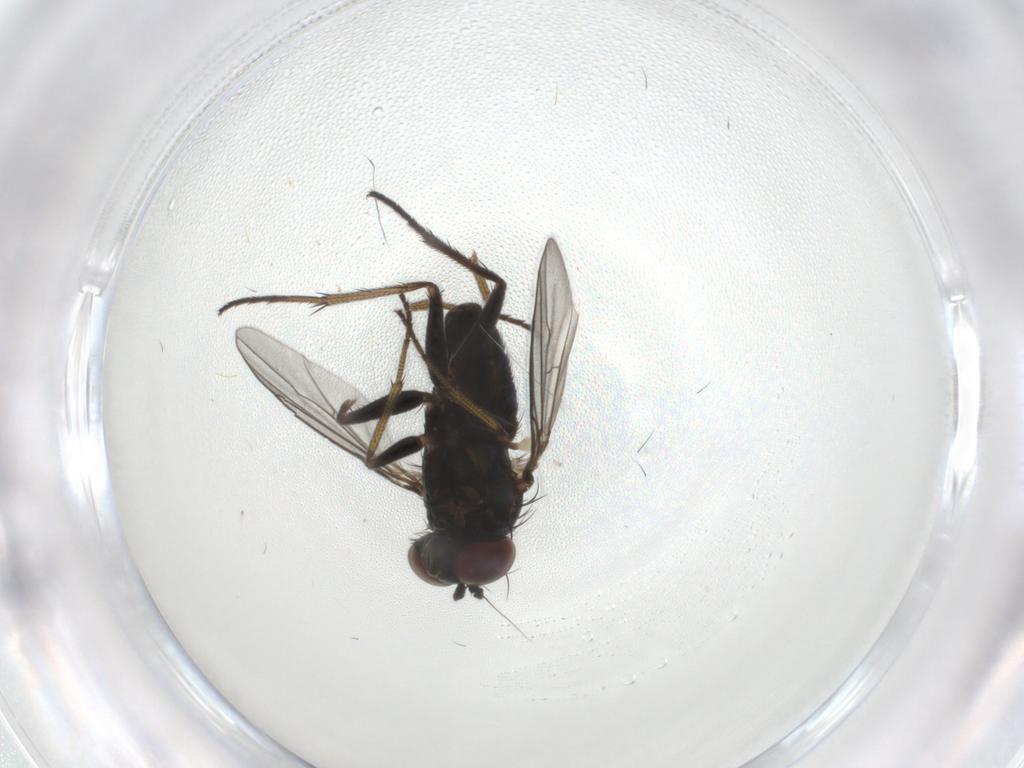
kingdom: Animalia
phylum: Arthropoda
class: Insecta
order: Diptera
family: Dolichopodidae
